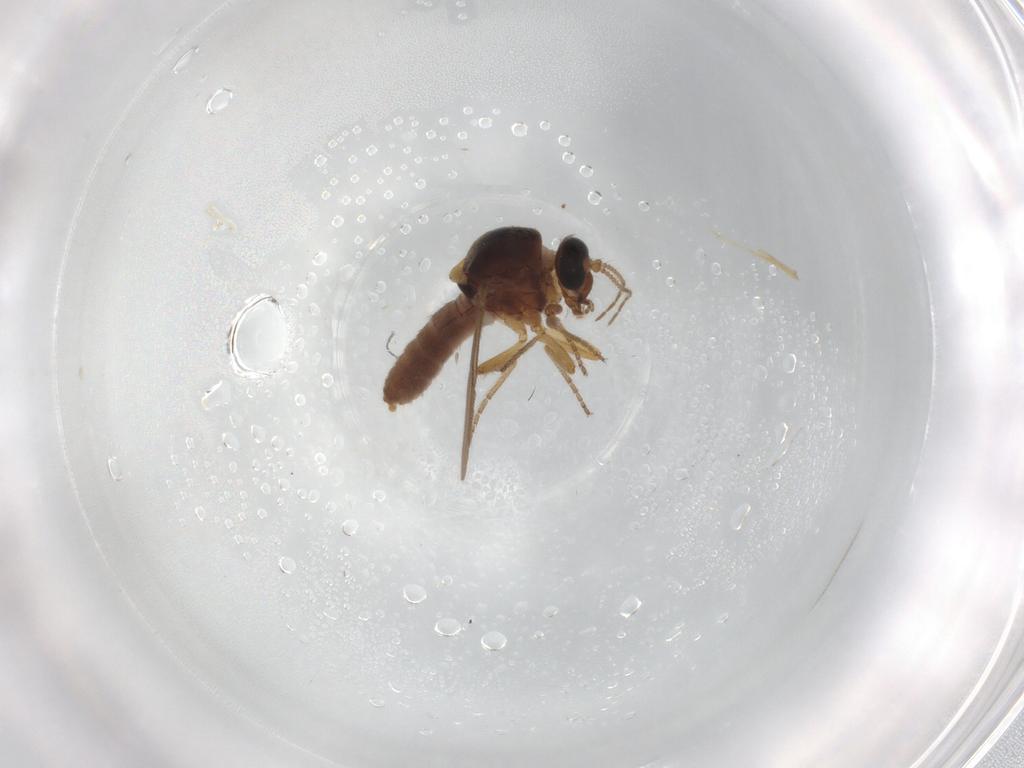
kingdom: Animalia
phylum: Arthropoda
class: Insecta
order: Diptera
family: Ceratopogonidae
